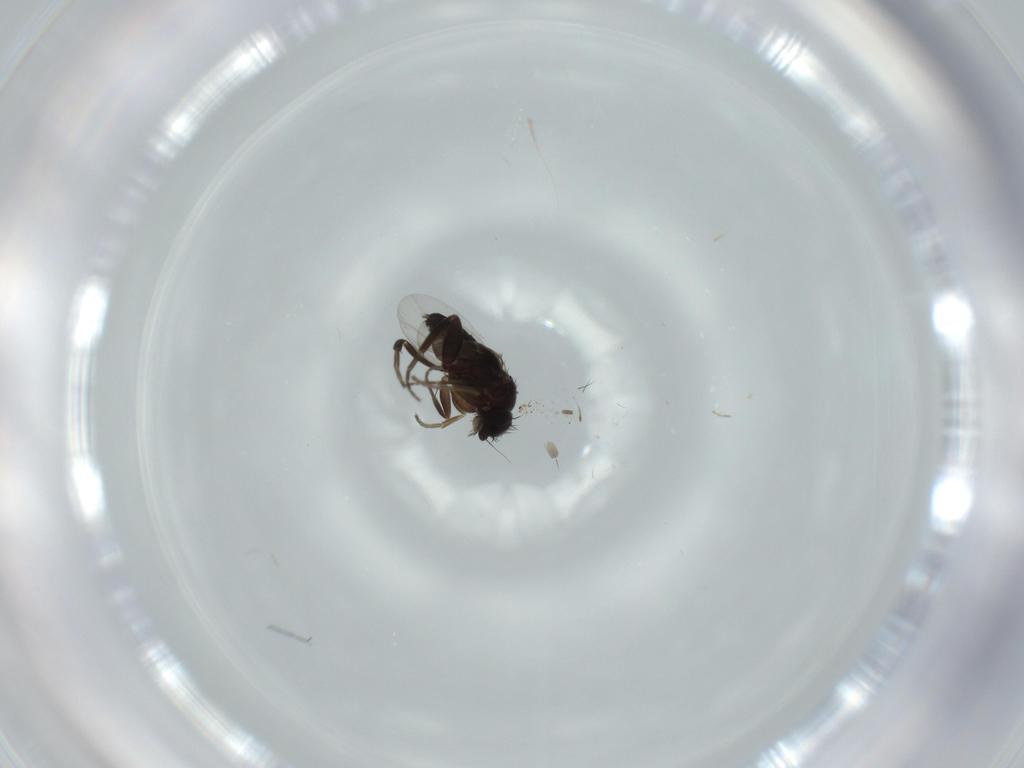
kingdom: Animalia
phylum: Arthropoda
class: Insecta
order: Diptera
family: Phoridae
